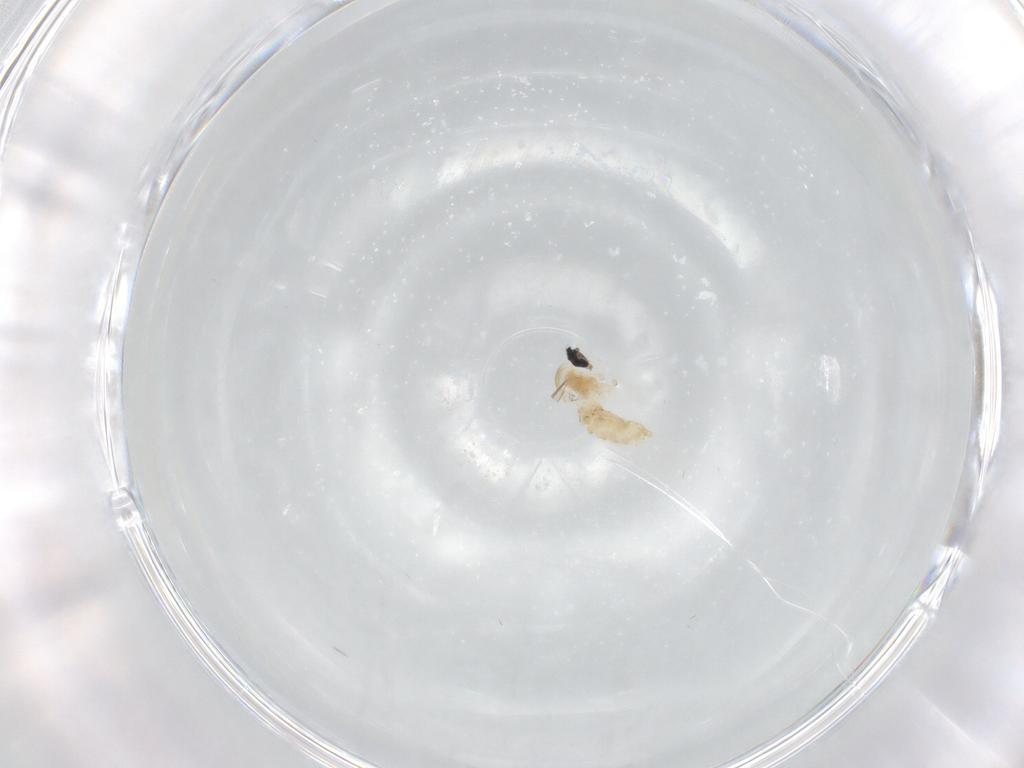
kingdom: Animalia
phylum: Arthropoda
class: Insecta
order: Diptera
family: Cecidomyiidae
